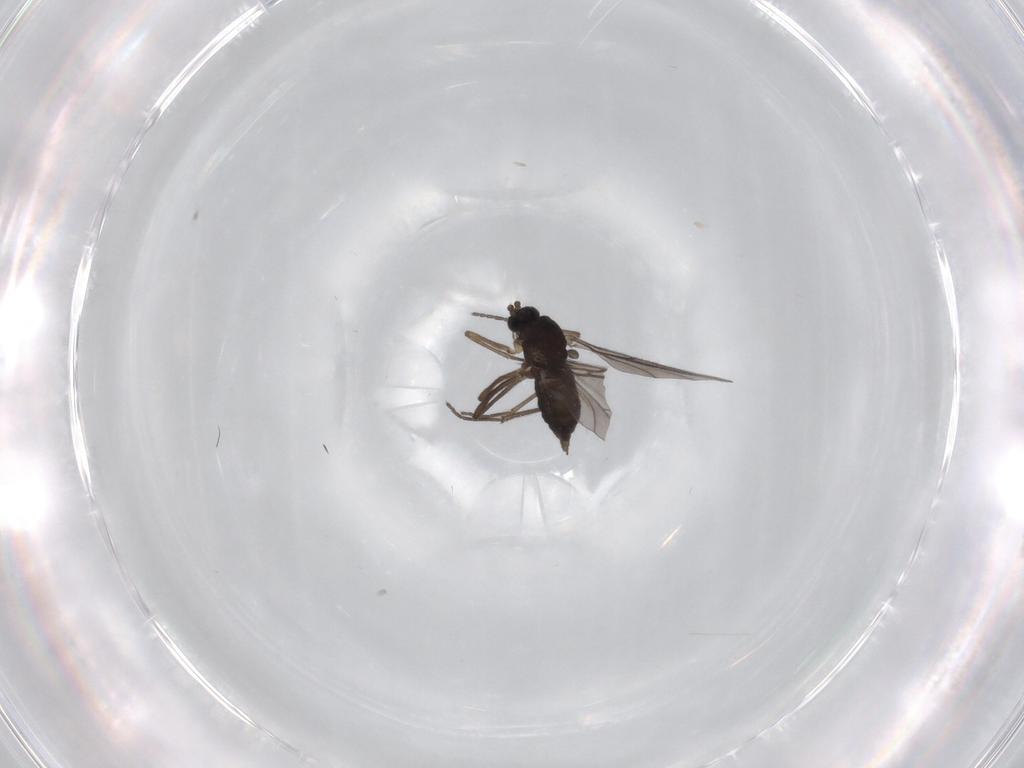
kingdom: Animalia
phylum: Arthropoda
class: Insecta
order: Diptera
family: Sciaridae
